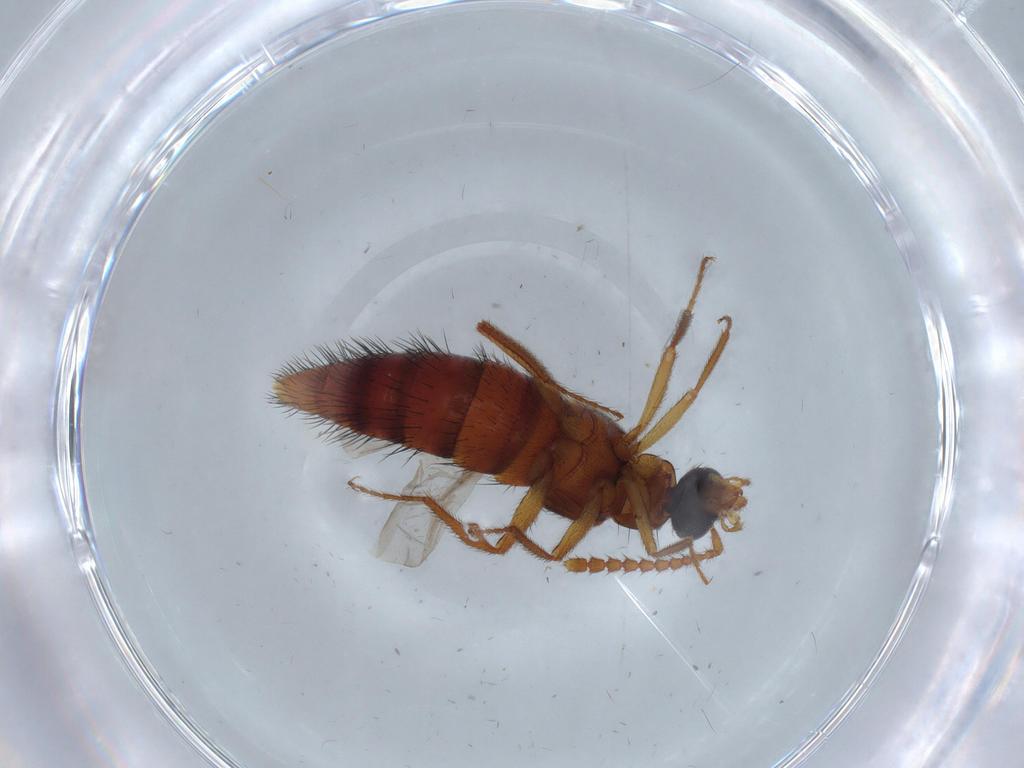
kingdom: Animalia
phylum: Arthropoda
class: Insecta
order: Coleoptera
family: Staphylinidae
